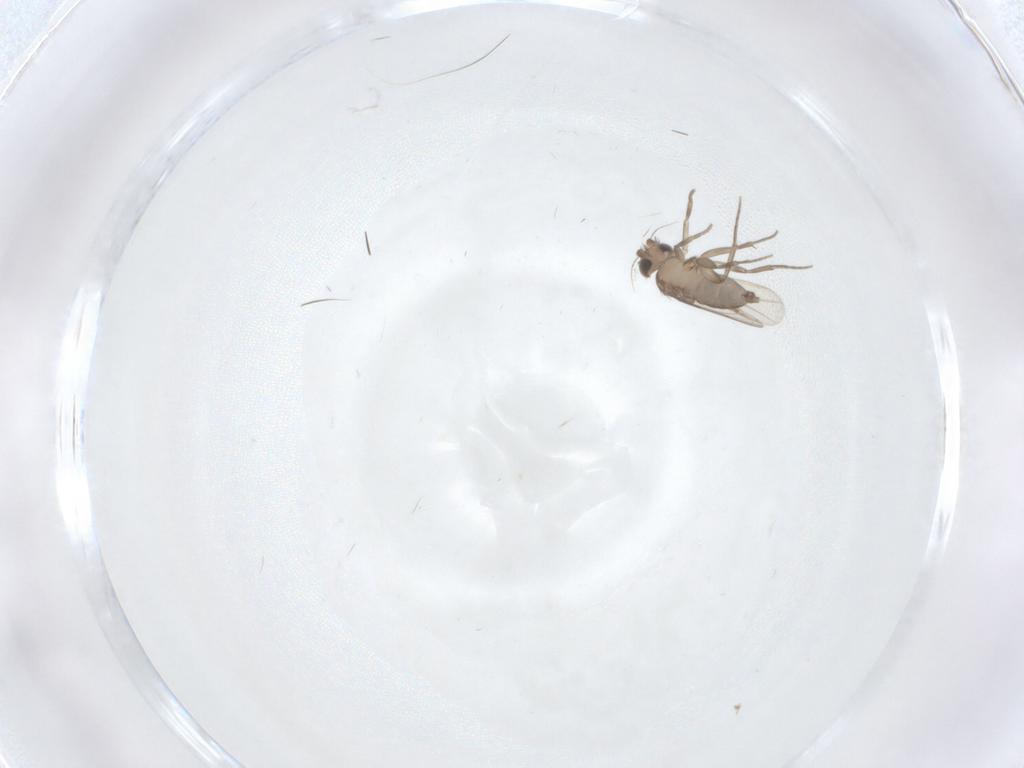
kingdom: Animalia
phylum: Arthropoda
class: Insecta
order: Diptera
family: Phoridae
